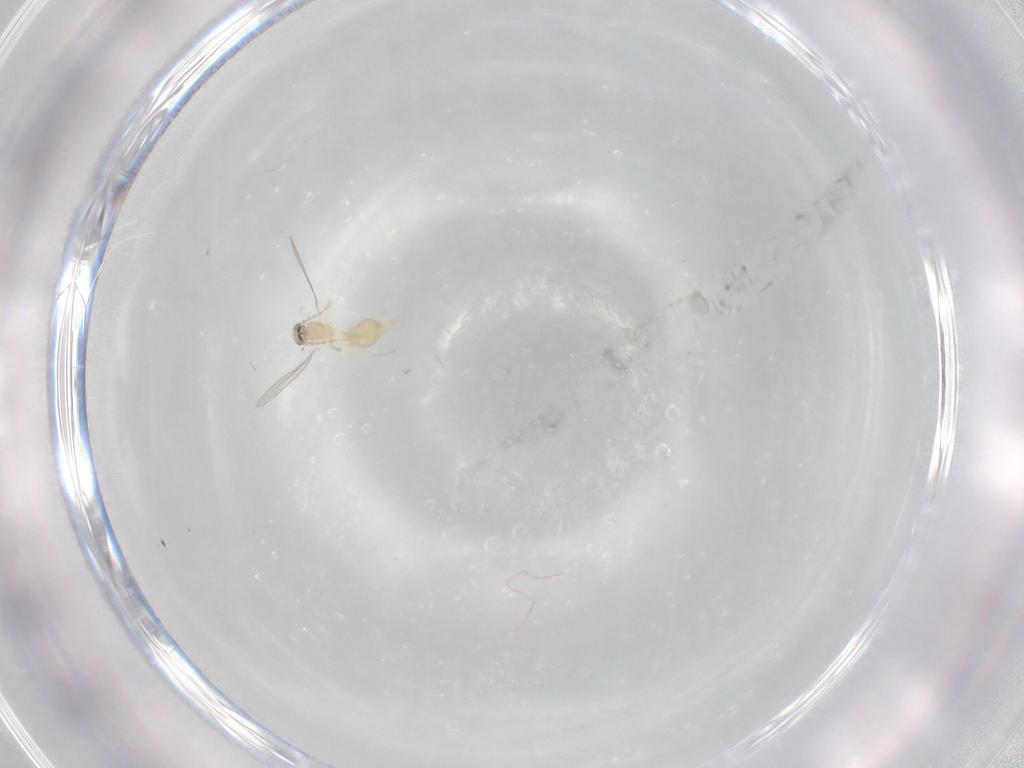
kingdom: Animalia
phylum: Arthropoda
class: Insecta
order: Diptera
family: Cecidomyiidae
